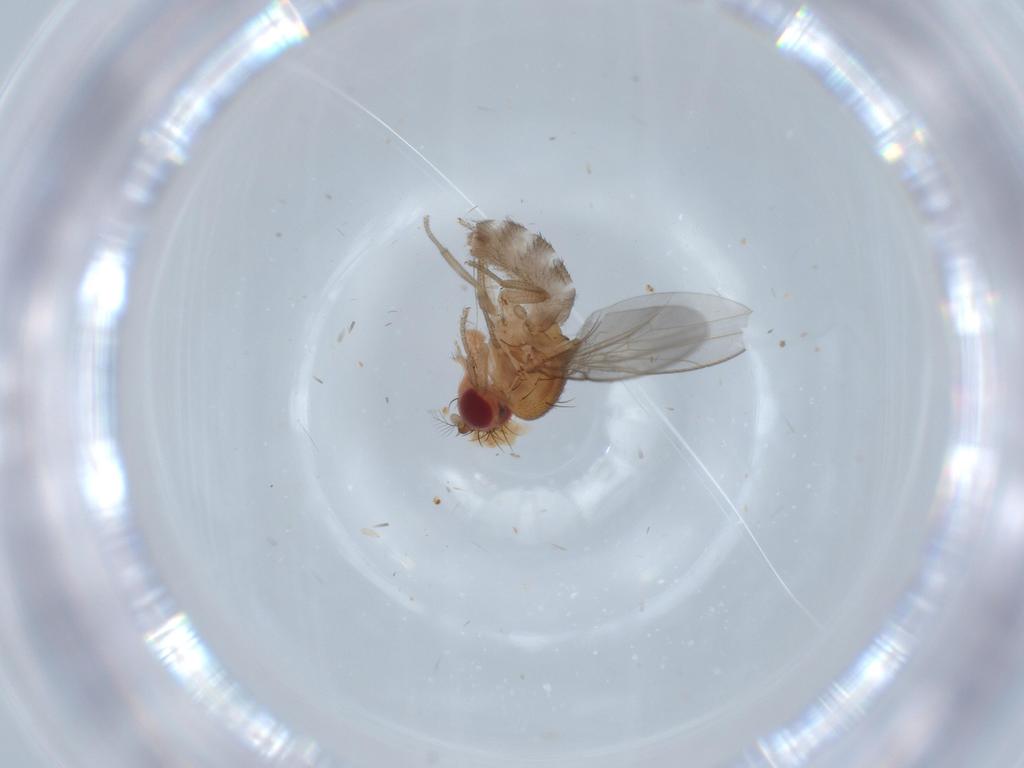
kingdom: Animalia
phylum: Arthropoda
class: Insecta
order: Diptera
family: Drosophilidae
